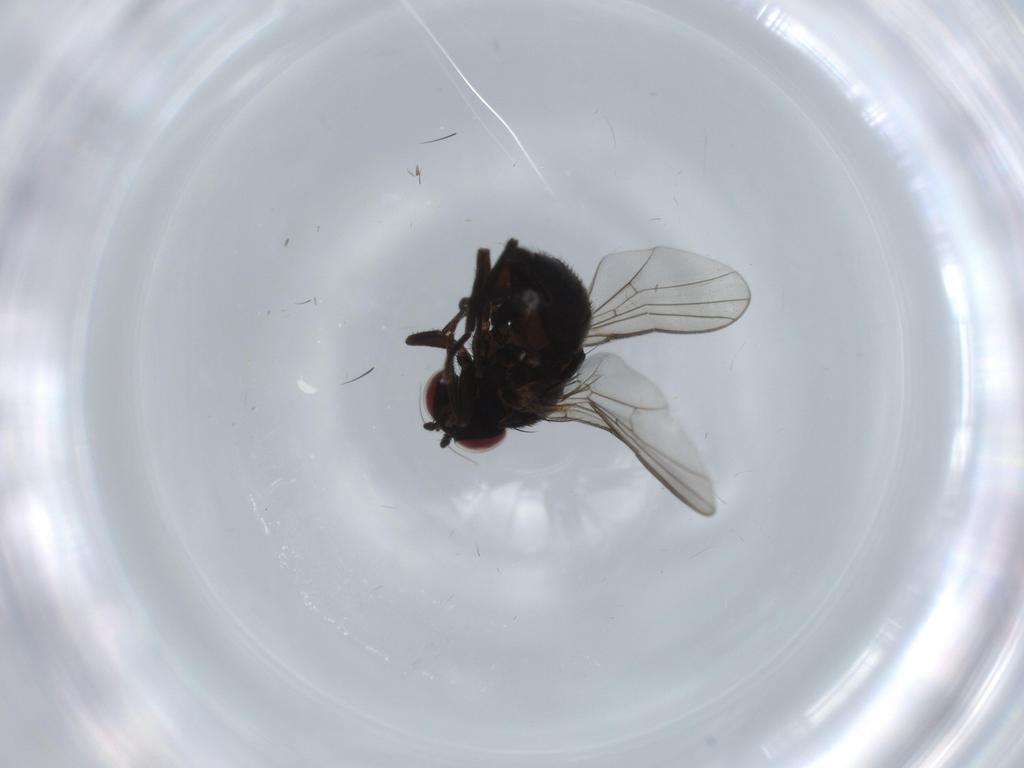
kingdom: Animalia
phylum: Arthropoda
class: Insecta
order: Diptera
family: Agromyzidae
